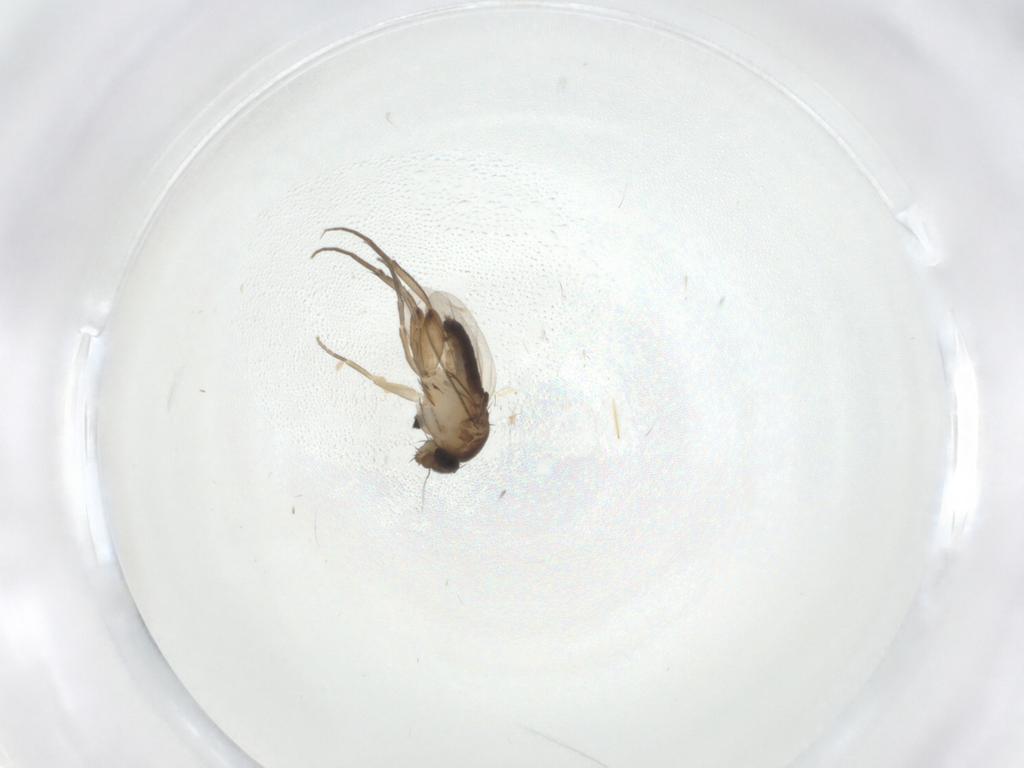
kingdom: Animalia
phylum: Arthropoda
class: Insecta
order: Diptera
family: Phoridae
